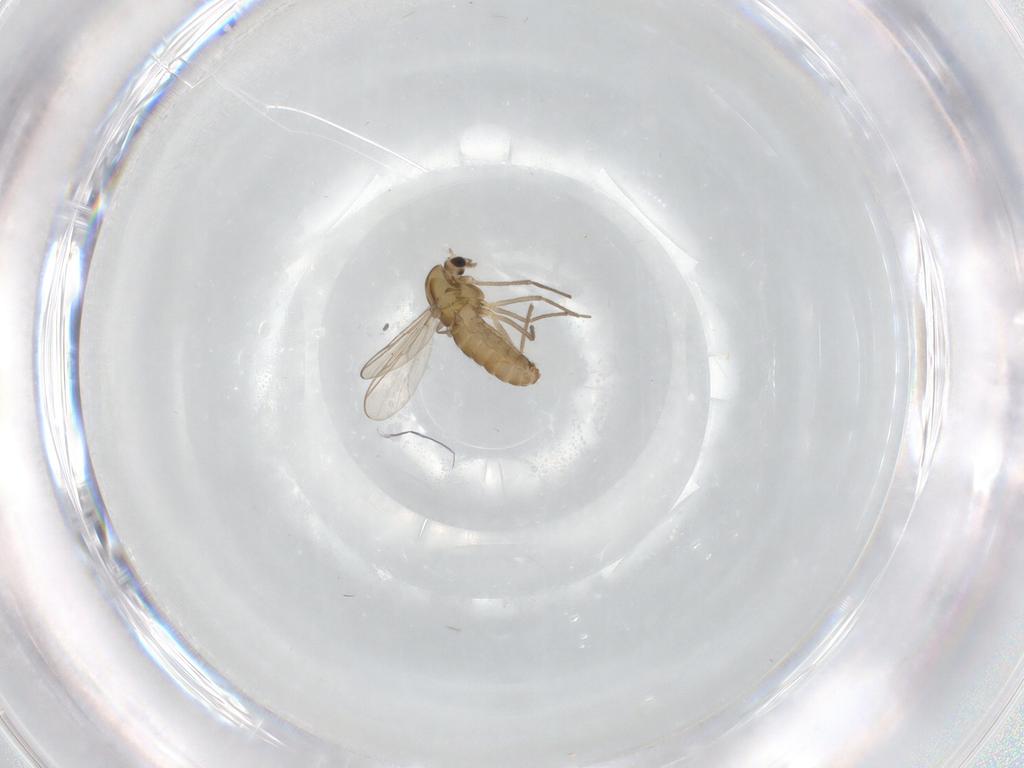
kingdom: Animalia
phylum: Arthropoda
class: Insecta
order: Diptera
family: Chironomidae
